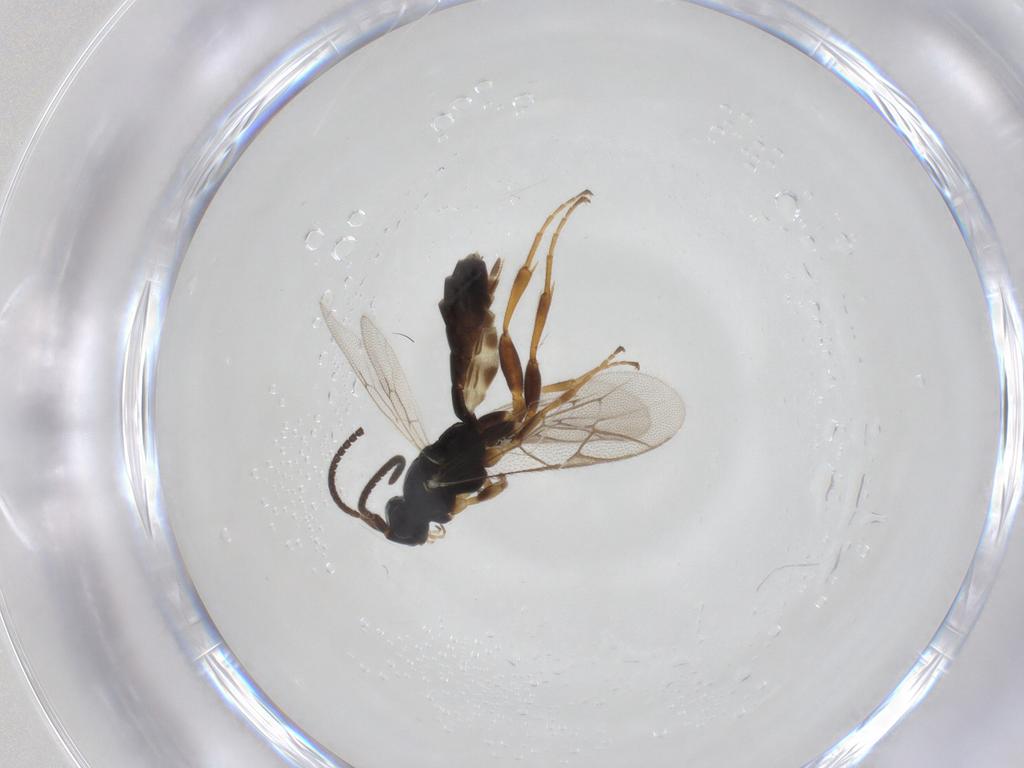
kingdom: Animalia
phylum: Arthropoda
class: Insecta
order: Hymenoptera
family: Ichneumonidae
